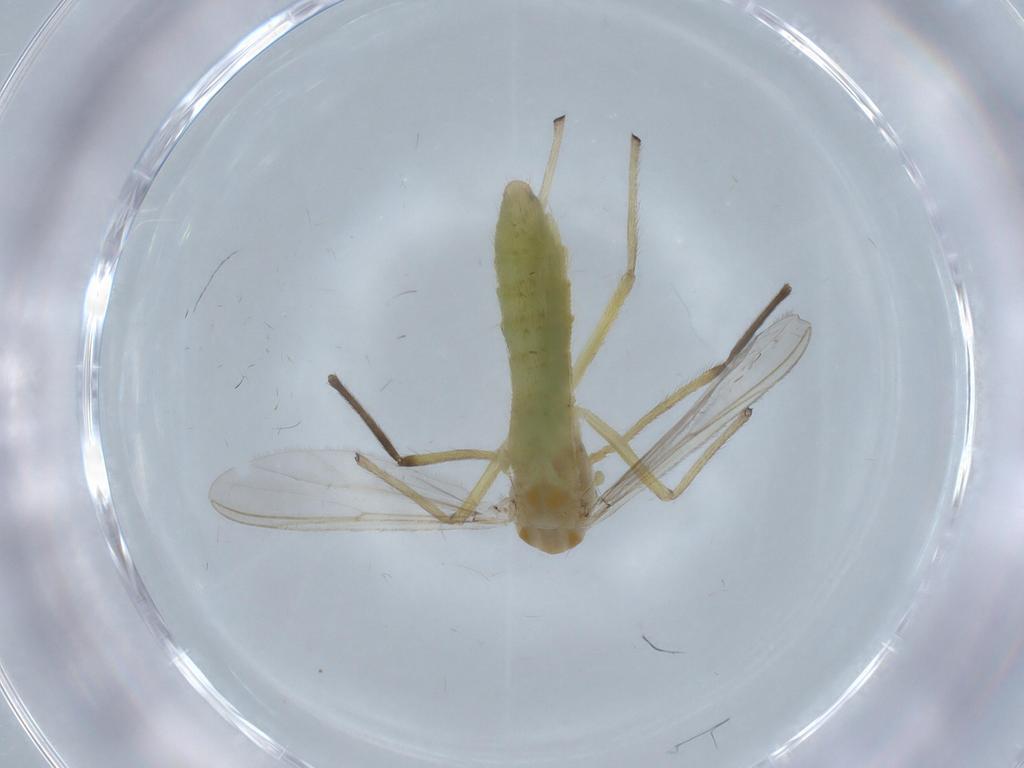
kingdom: Animalia
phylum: Arthropoda
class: Insecta
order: Diptera
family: Chironomidae
